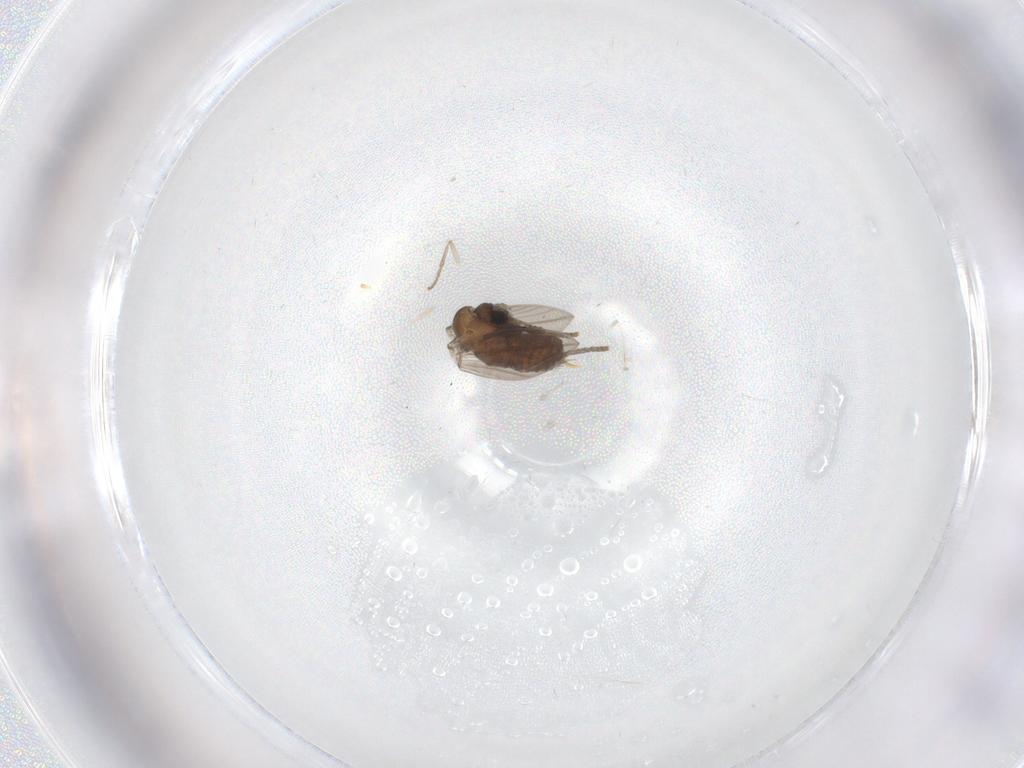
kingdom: Animalia
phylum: Arthropoda
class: Insecta
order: Diptera
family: Psychodidae
